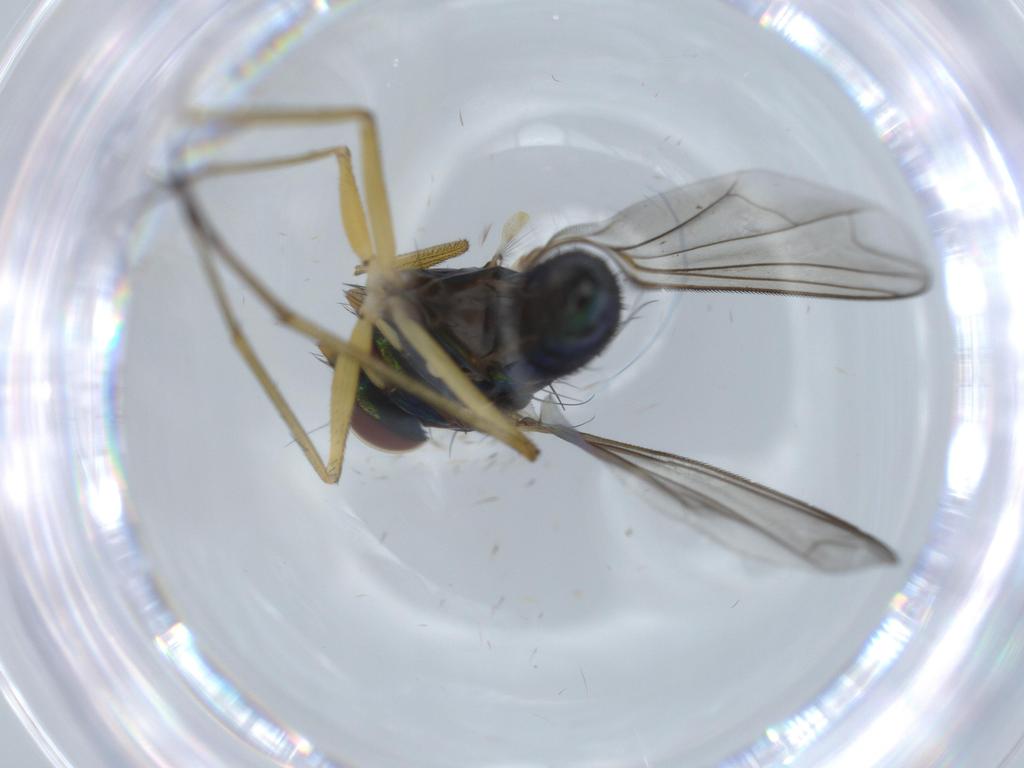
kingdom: Animalia
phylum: Arthropoda
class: Insecta
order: Diptera
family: Dolichopodidae
